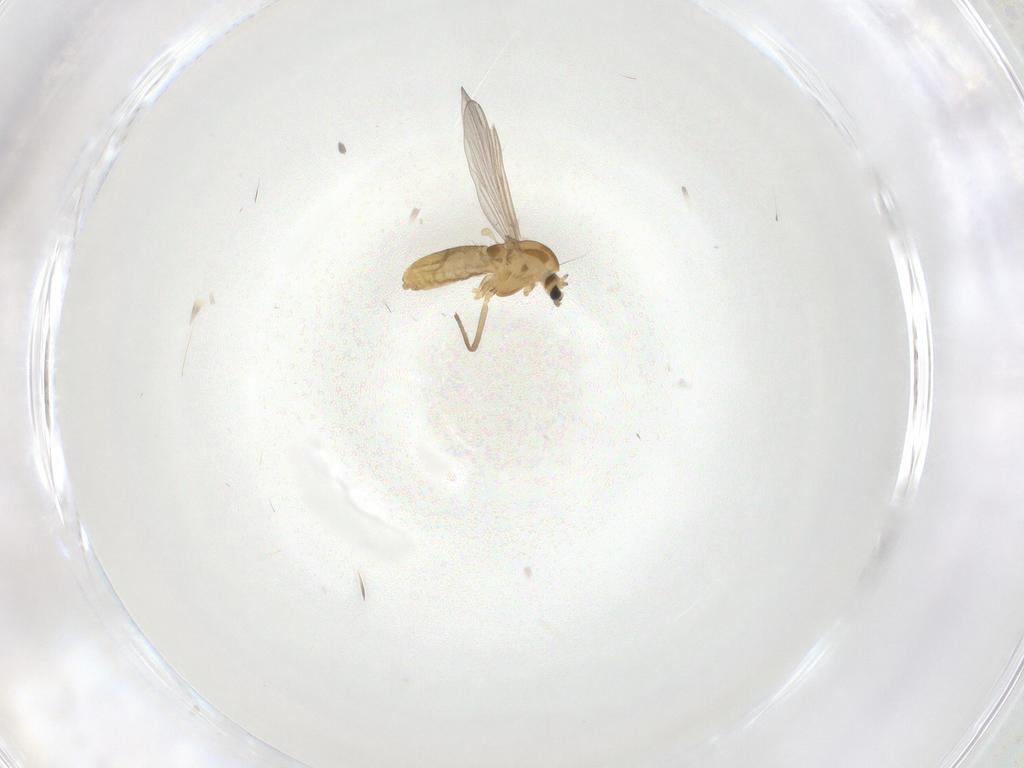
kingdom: Animalia
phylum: Arthropoda
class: Insecta
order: Diptera
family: Chironomidae
